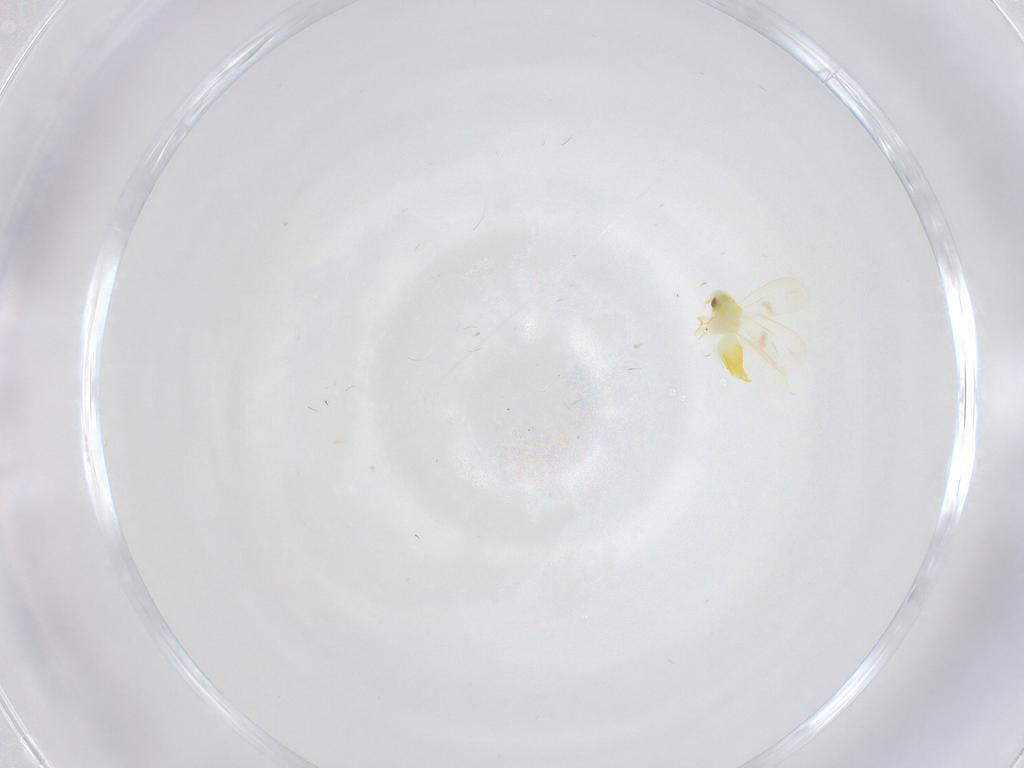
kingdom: Animalia
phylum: Arthropoda
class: Insecta
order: Hemiptera
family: Aleyrodidae
